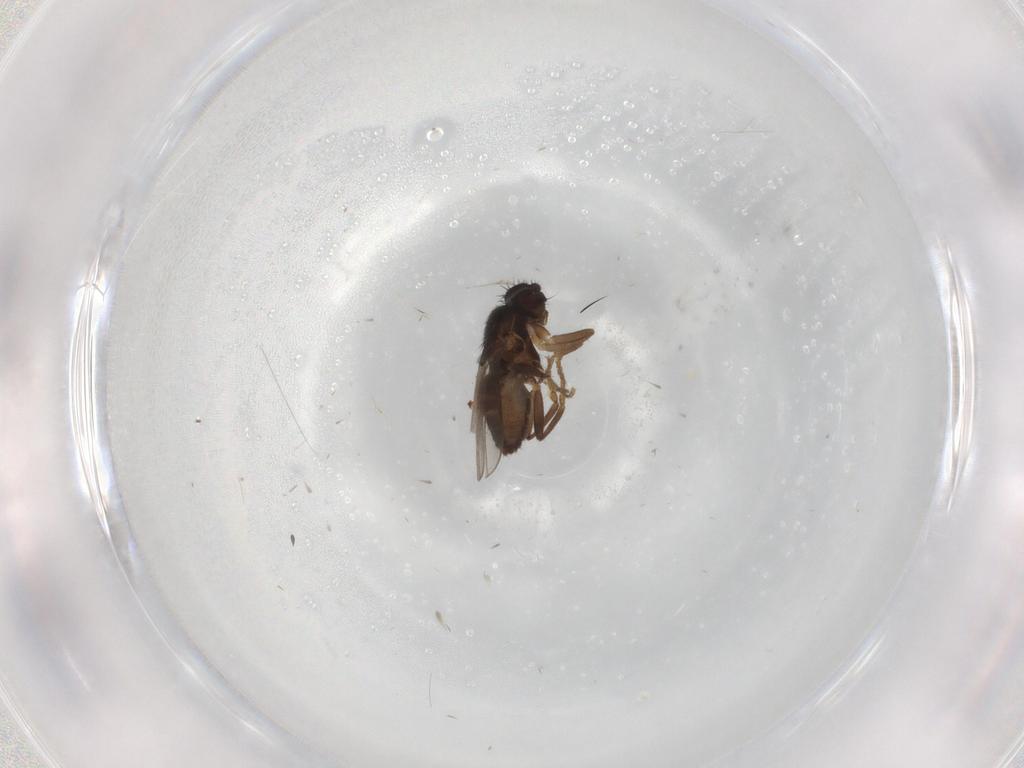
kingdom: Animalia
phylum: Arthropoda
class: Insecta
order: Diptera
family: Sphaeroceridae
